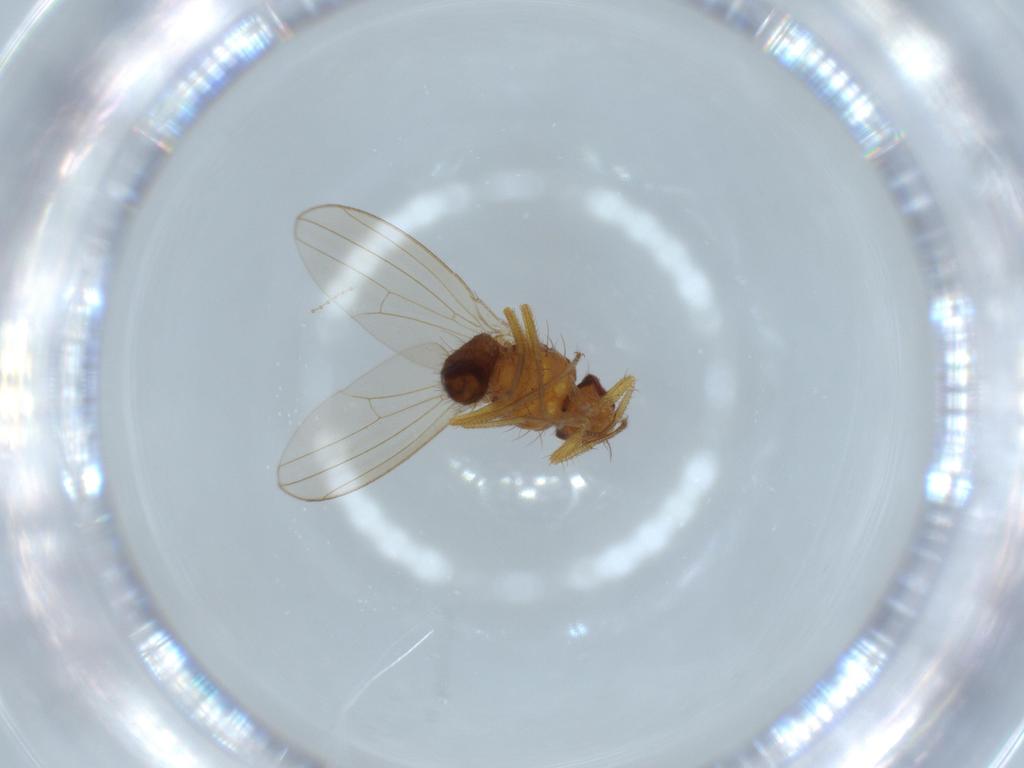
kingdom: Animalia
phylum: Arthropoda
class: Insecta
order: Diptera
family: Drosophilidae
